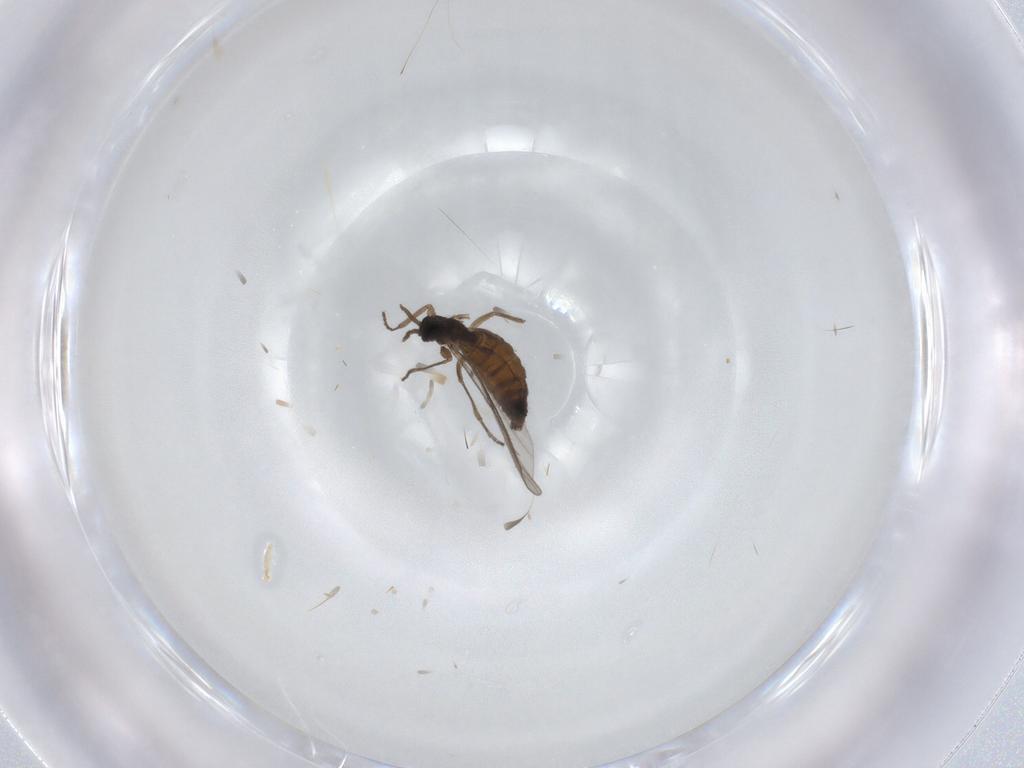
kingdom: Animalia
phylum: Arthropoda
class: Insecta
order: Diptera
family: Sciaridae
